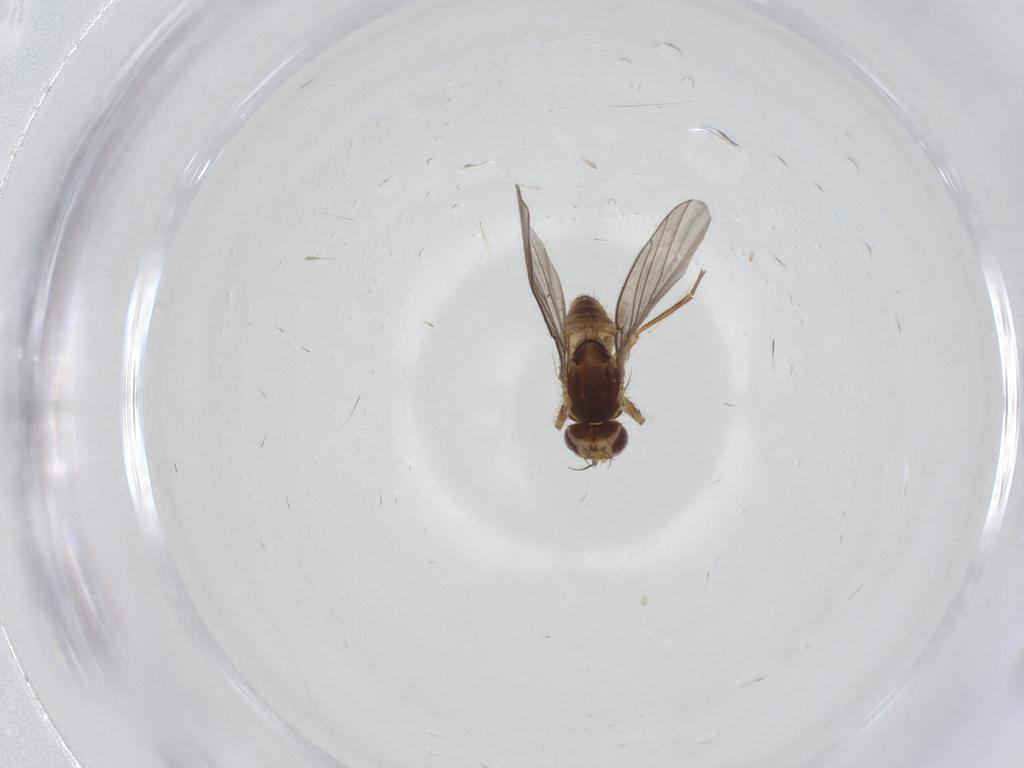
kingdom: Animalia
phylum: Arthropoda
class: Insecta
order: Diptera
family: Agromyzidae
